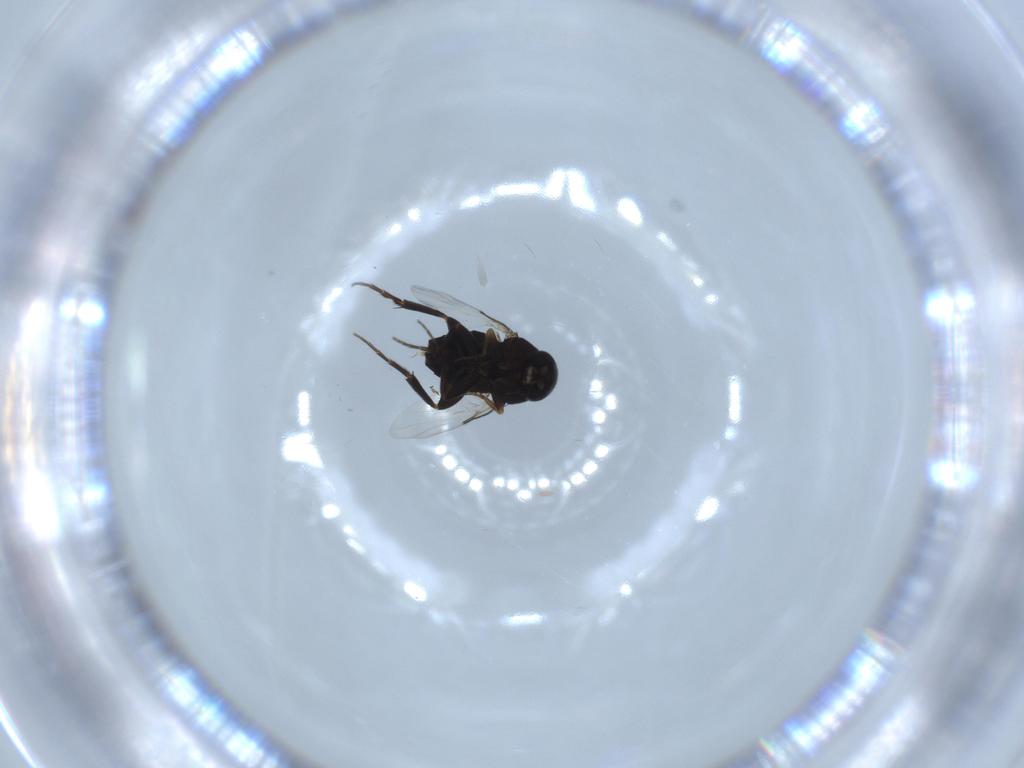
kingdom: Animalia
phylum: Arthropoda
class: Insecta
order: Diptera
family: Phoridae
